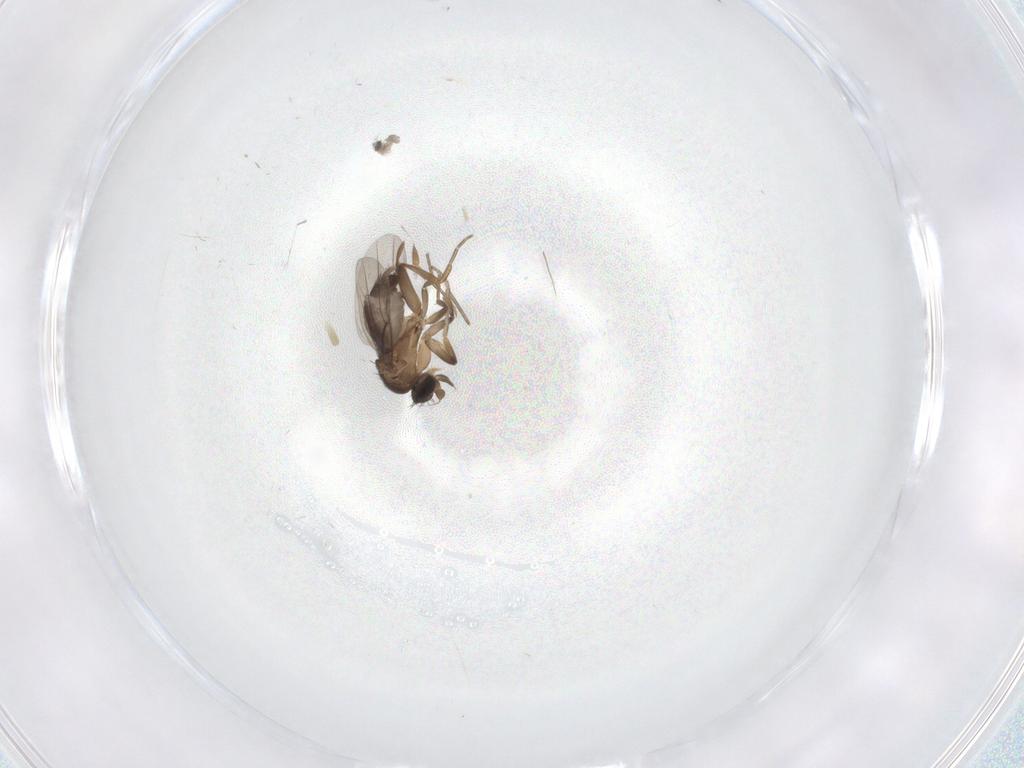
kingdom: Animalia
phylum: Arthropoda
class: Insecta
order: Diptera
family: Phoridae
